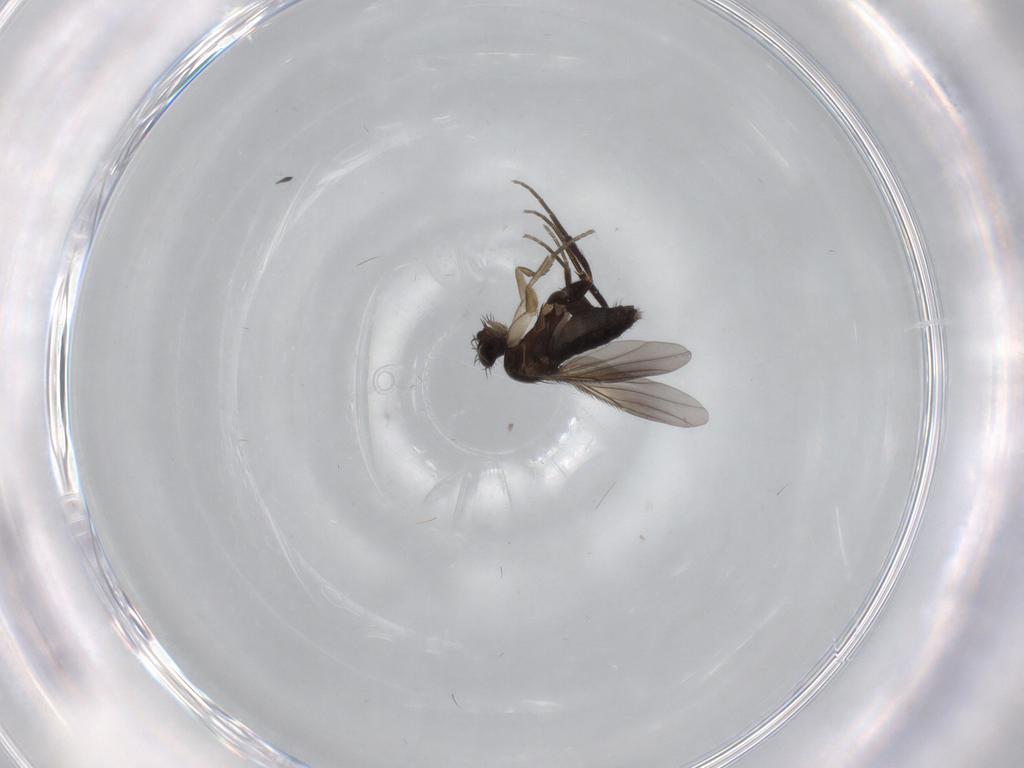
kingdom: Animalia
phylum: Arthropoda
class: Insecta
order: Diptera
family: Phoridae
